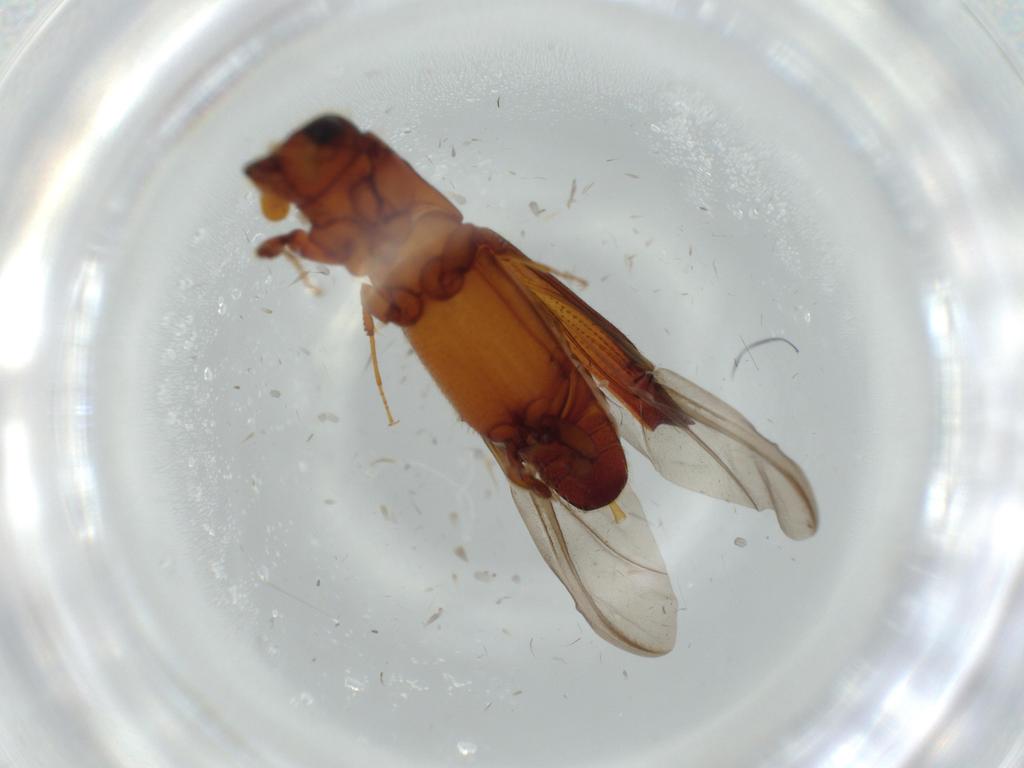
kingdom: Animalia
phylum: Arthropoda
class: Insecta
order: Coleoptera
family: Curculionidae
